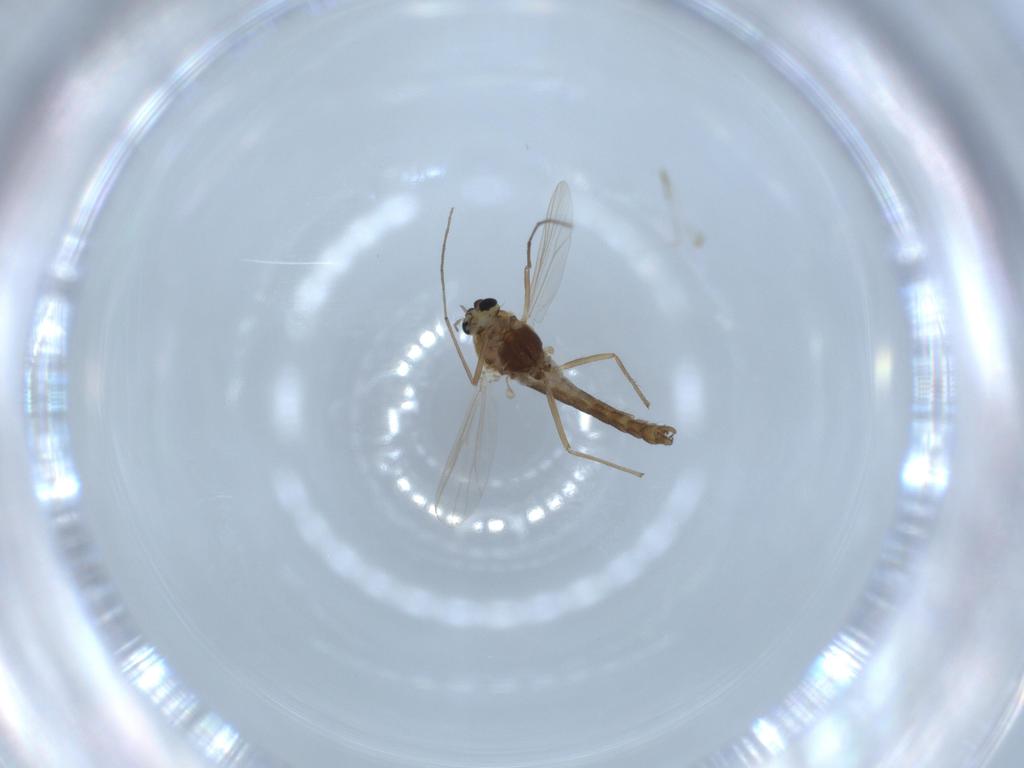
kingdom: Animalia
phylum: Arthropoda
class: Insecta
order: Diptera
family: Chironomidae
